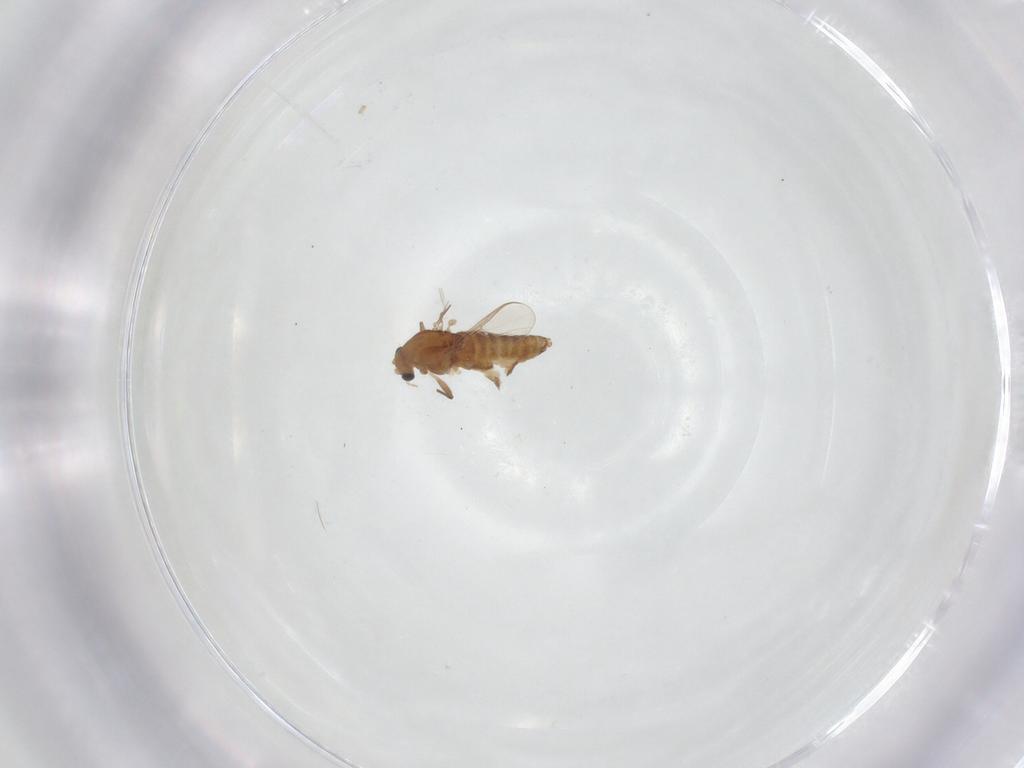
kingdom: Animalia
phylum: Arthropoda
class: Insecta
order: Diptera
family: Chironomidae
